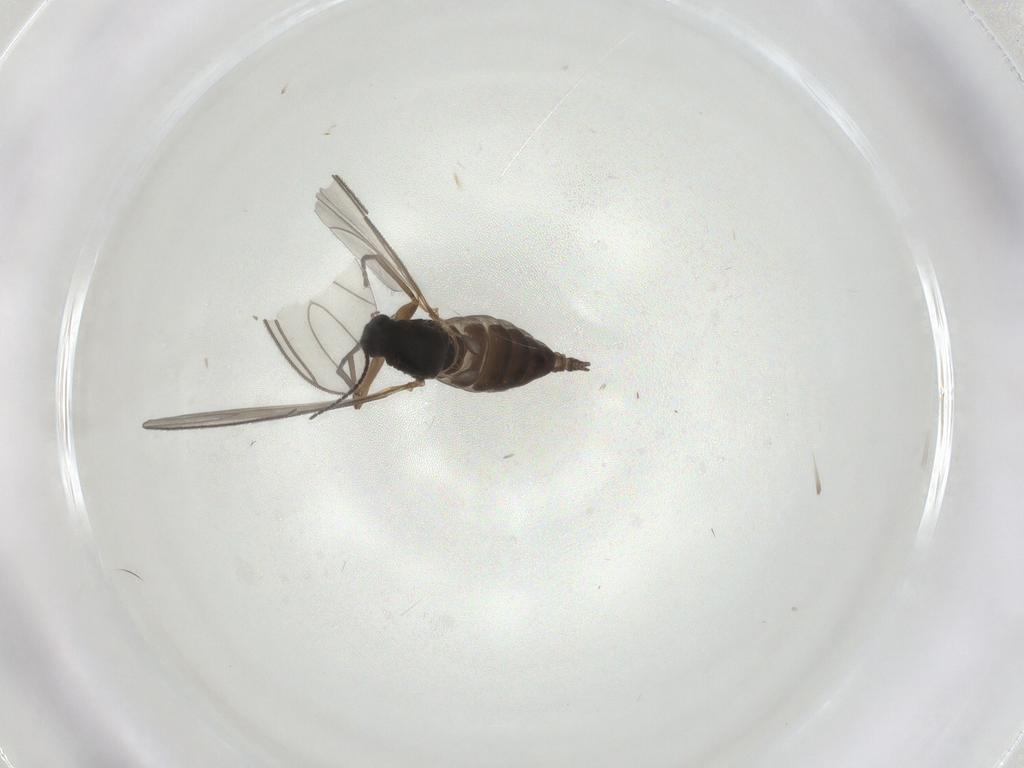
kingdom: Animalia
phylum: Arthropoda
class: Insecta
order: Diptera
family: Sciaridae
